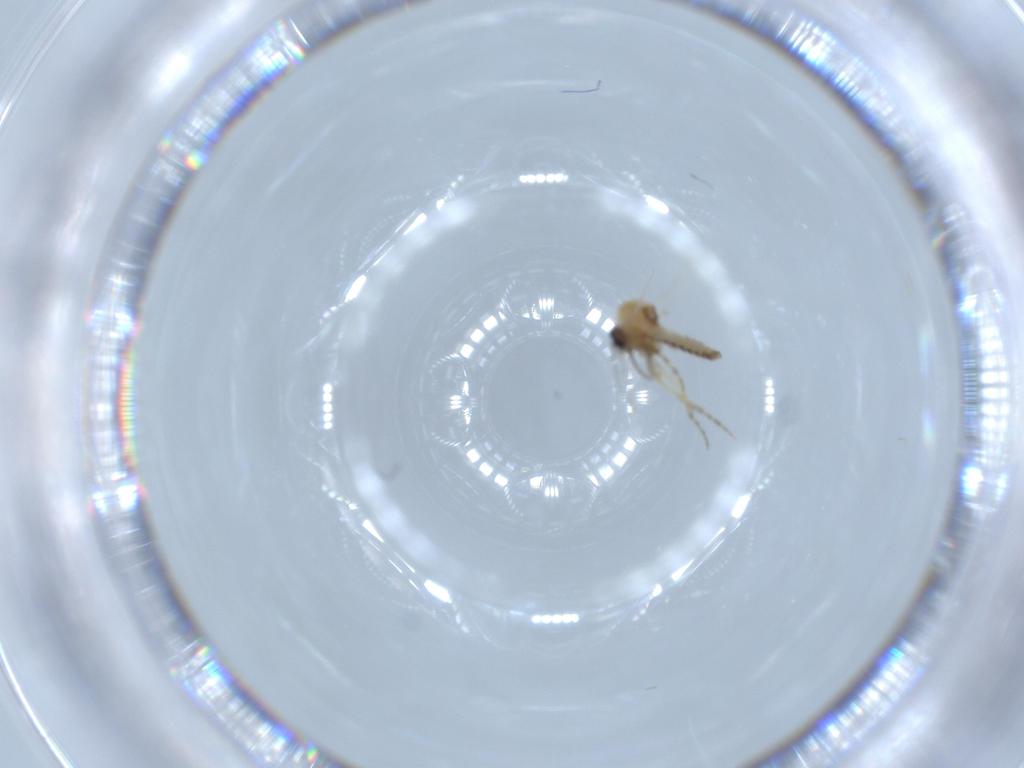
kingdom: Animalia
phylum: Arthropoda
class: Insecta
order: Diptera
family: Ceratopogonidae
